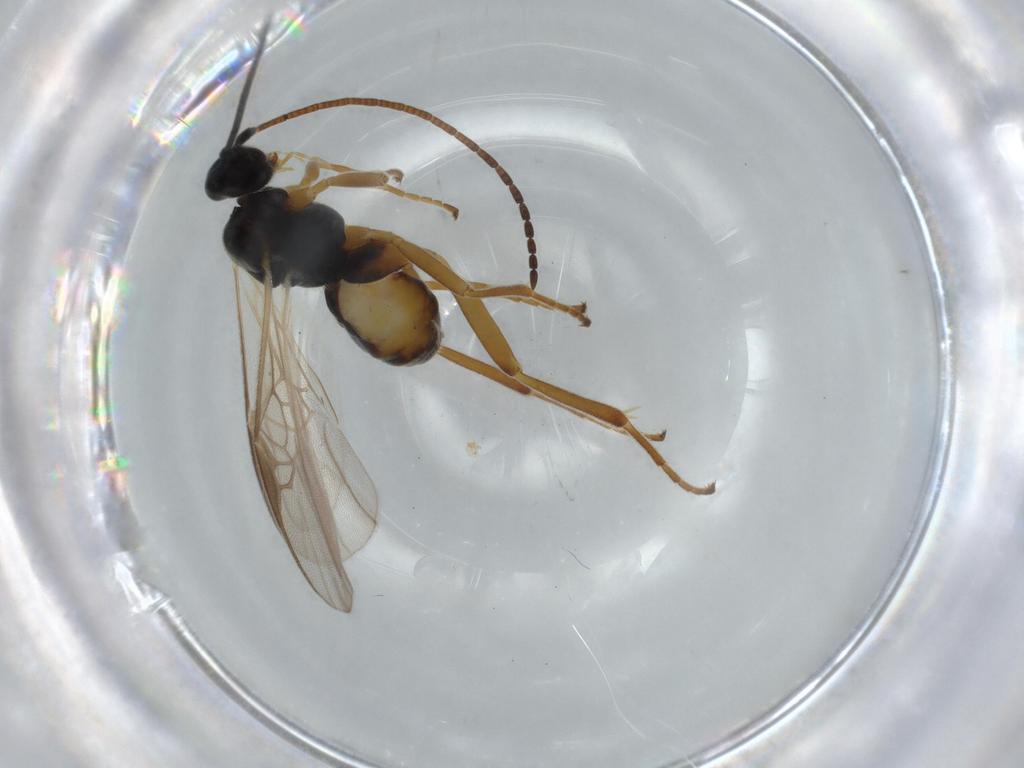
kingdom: Animalia
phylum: Arthropoda
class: Insecta
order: Hymenoptera
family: Braconidae
